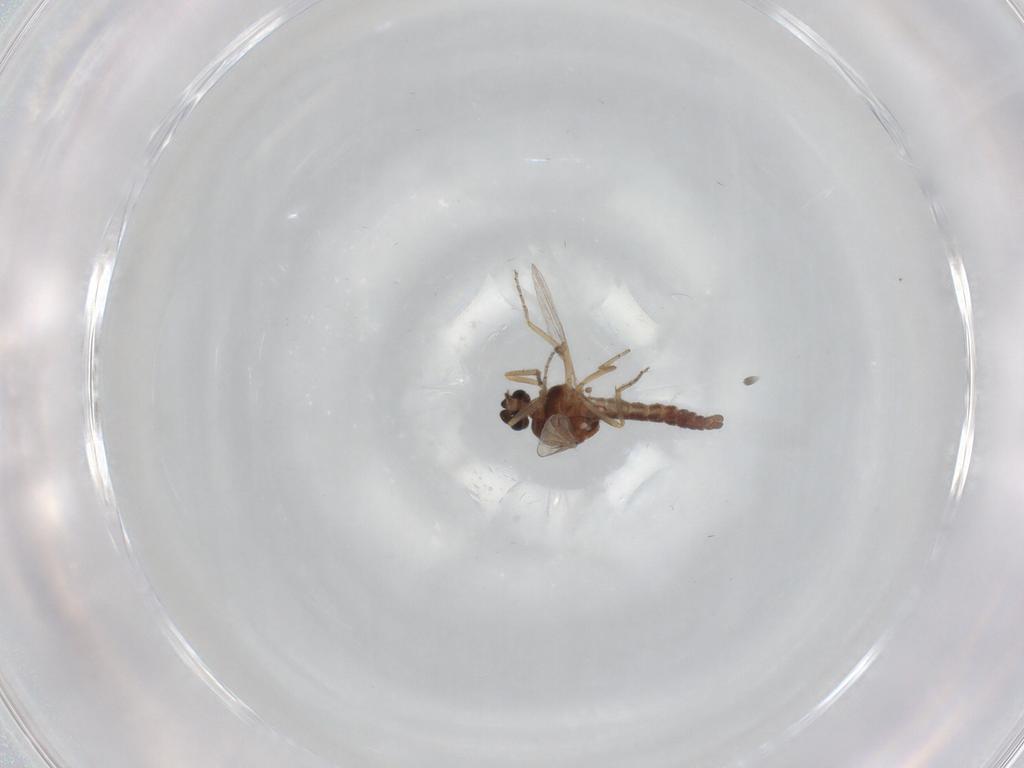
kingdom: Animalia
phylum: Arthropoda
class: Insecta
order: Diptera
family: Ceratopogonidae
